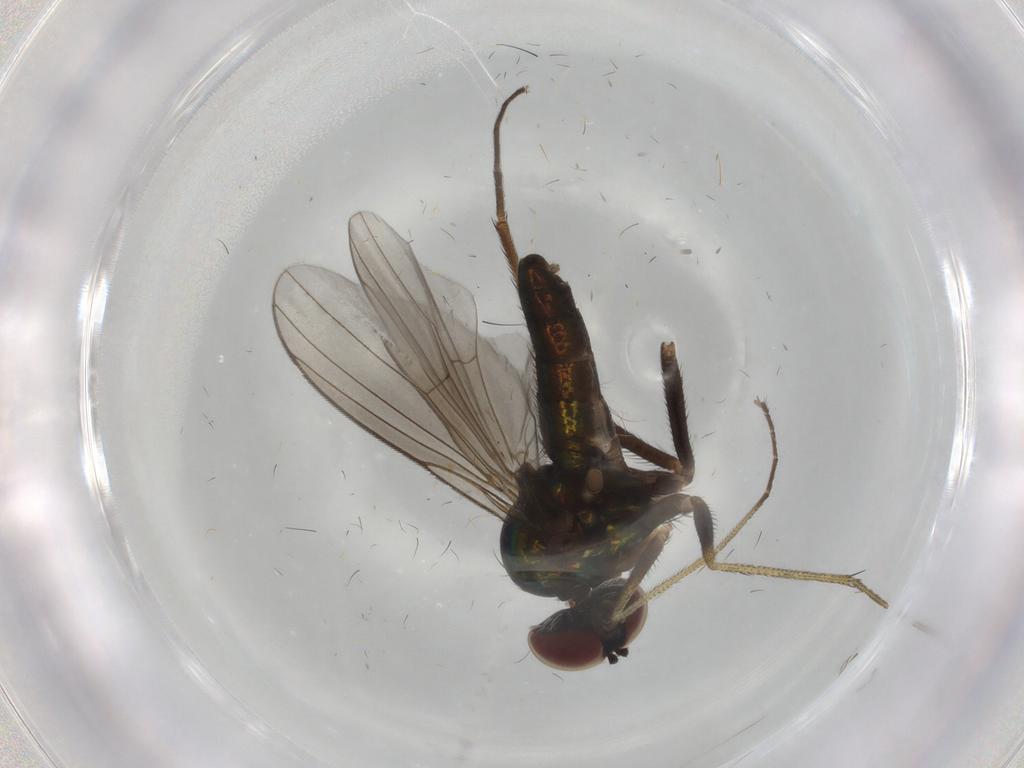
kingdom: Animalia
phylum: Arthropoda
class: Insecta
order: Diptera
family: Dolichopodidae
